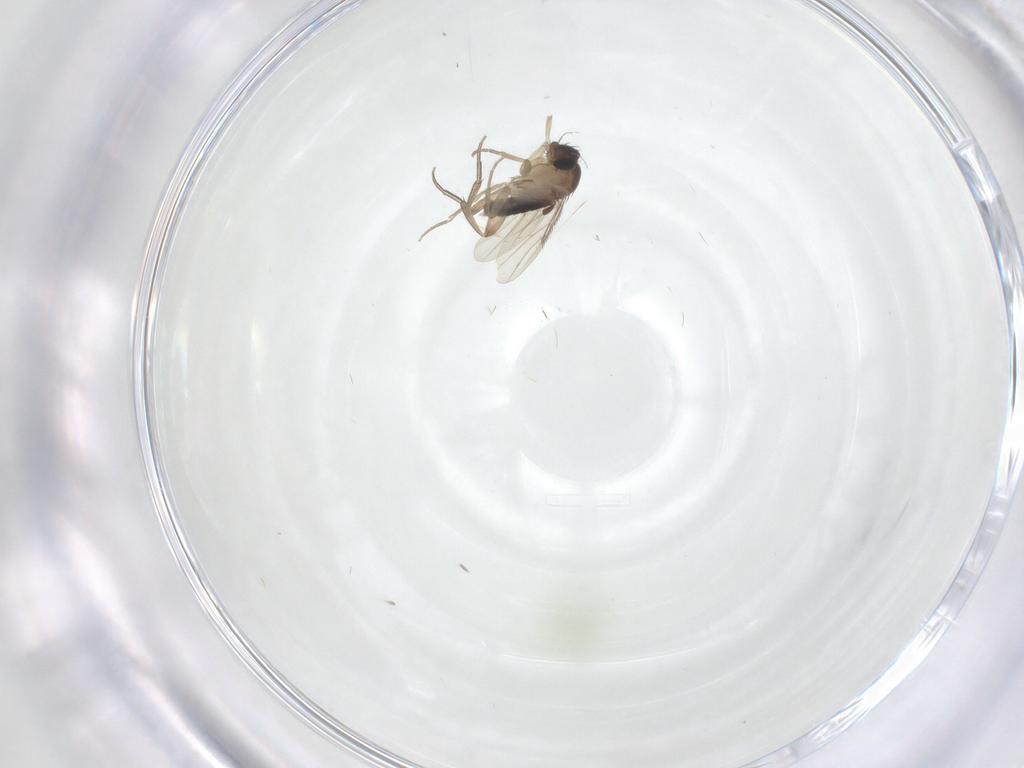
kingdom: Animalia
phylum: Arthropoda
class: Insecta
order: Diptera
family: Phoridae
